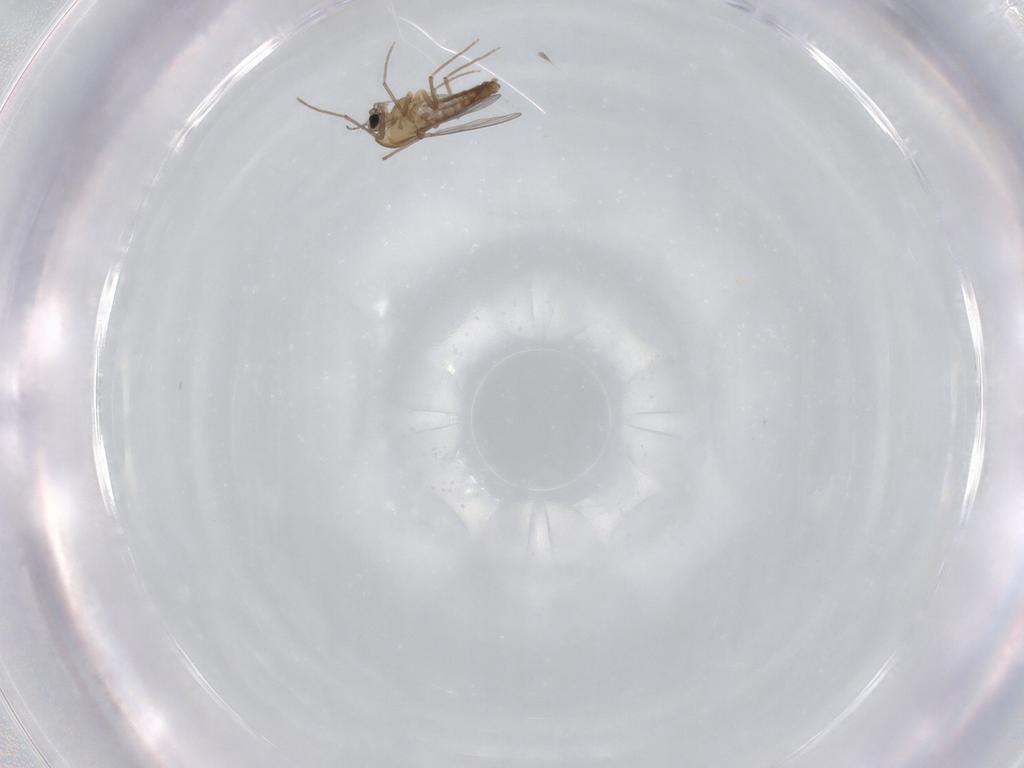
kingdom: Animalia
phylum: Arthropoda
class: Insecta
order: Diptera
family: Chironomidae
